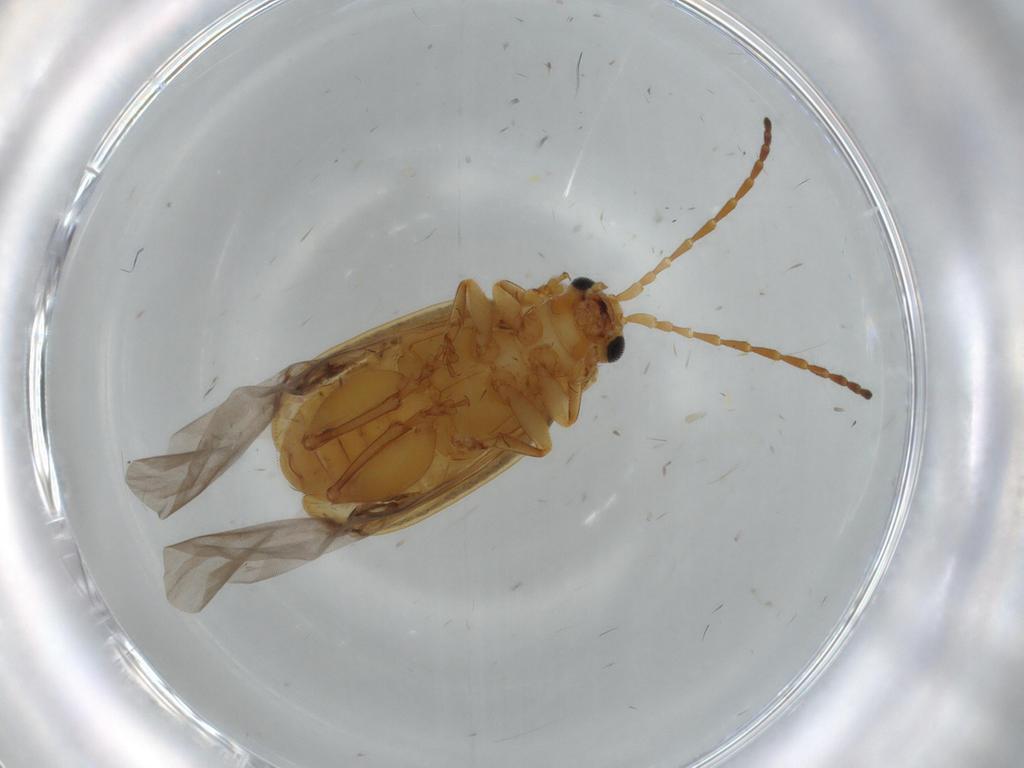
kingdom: Animalia
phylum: Arthropoda
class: Insecta
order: Coleoptera
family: Chrysomelidae
